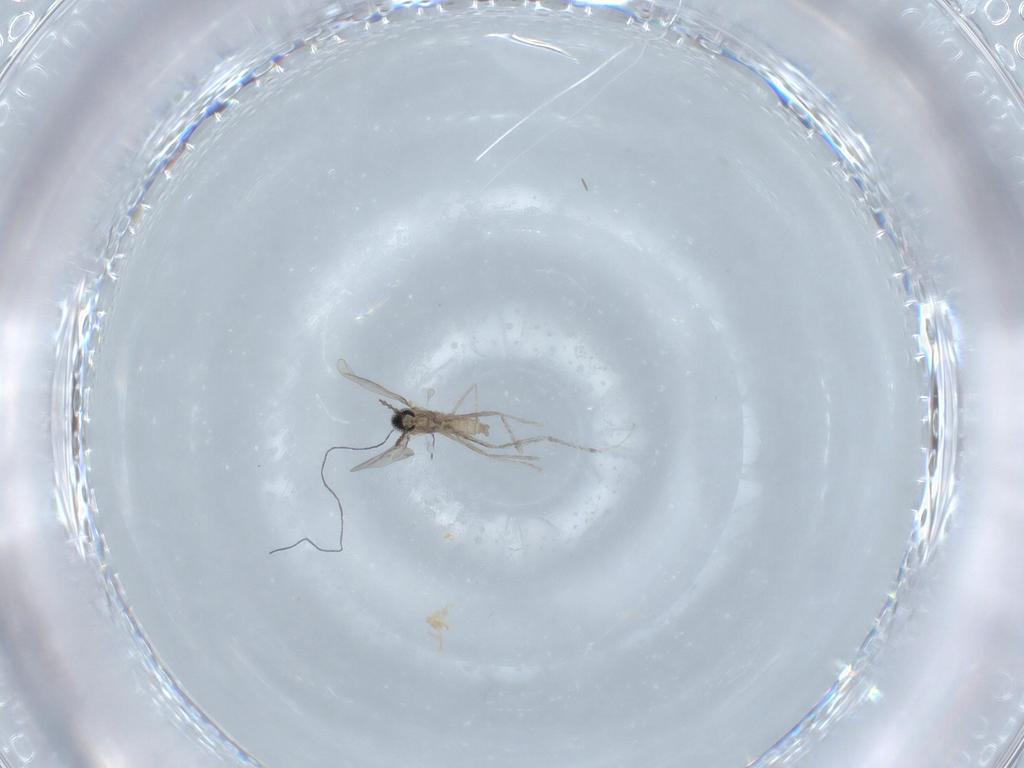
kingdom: Animalia
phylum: Arthropoda
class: Insecta
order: Diptera
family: Cecidomyiidae
